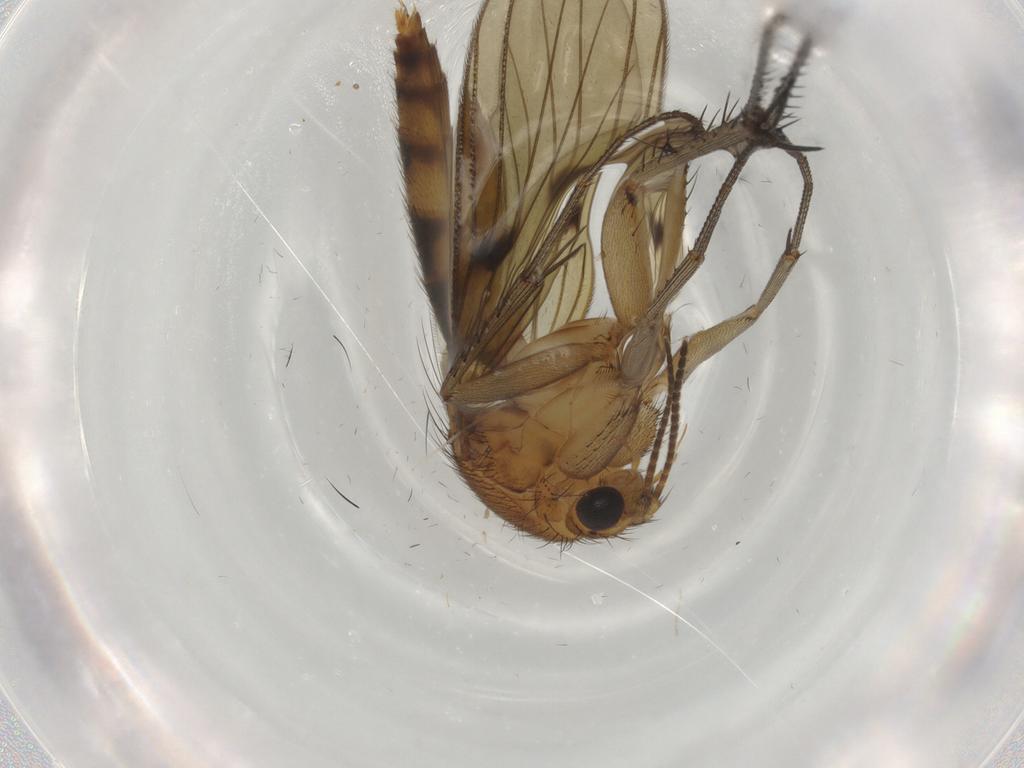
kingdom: Animalia
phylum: Arthropoda
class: Insecta
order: Diptera
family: Mycetophilidae
